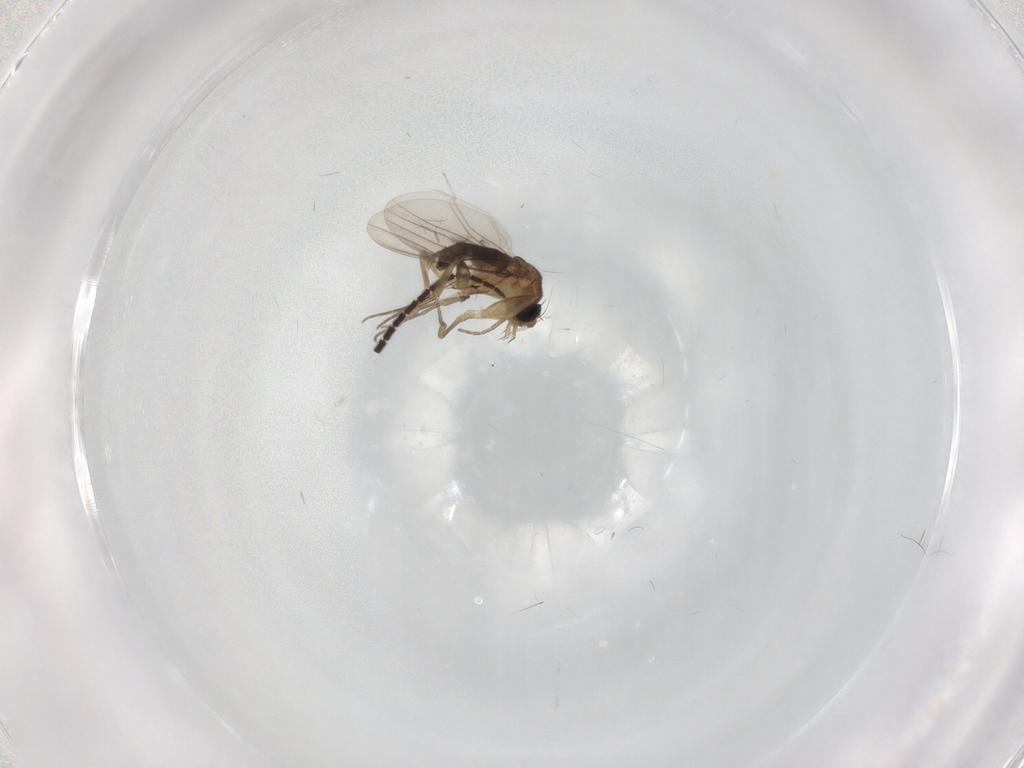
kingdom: Animalia
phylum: Arthropoda
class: Insecta
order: Diptera
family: Phoridae
